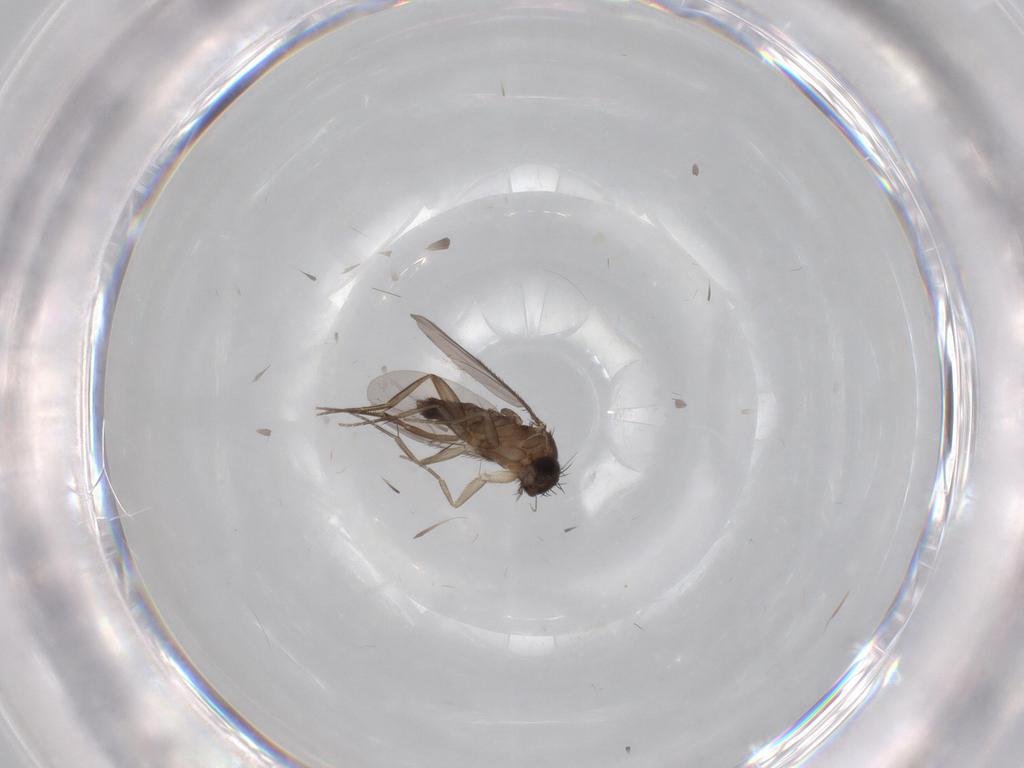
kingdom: Animalia
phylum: Arthropoda
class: Insecta
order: Diptera
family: Phoridae
